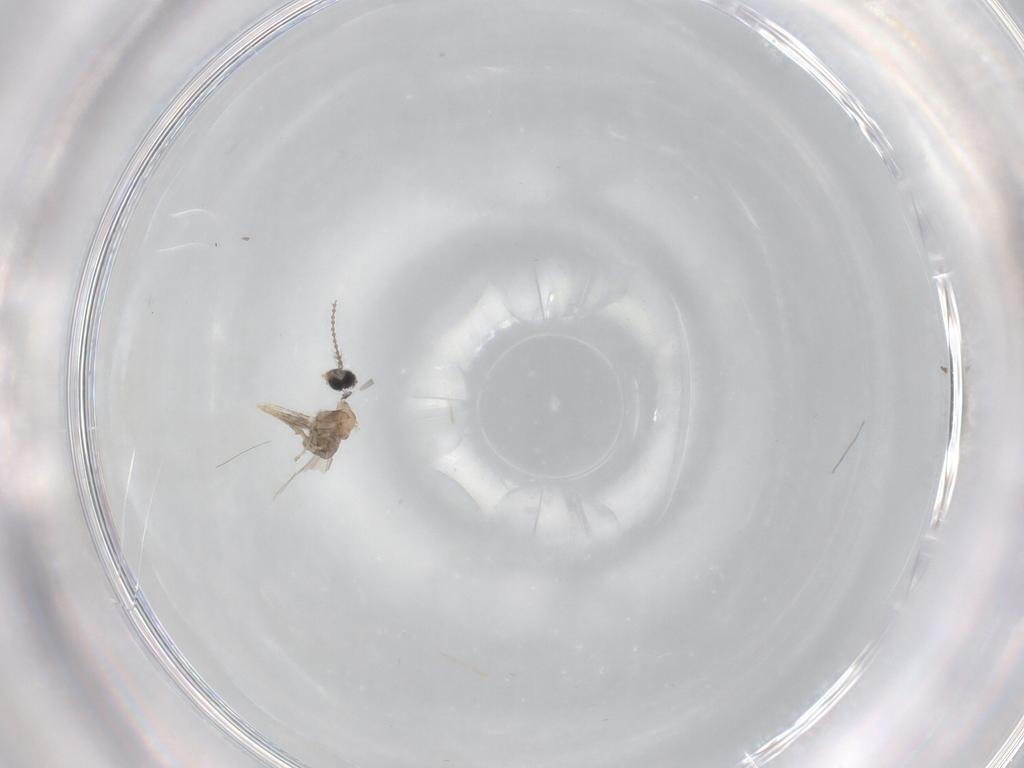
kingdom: Animalia
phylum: Arthropoda
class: Insecta
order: Diptera
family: Cecidomyiidae
